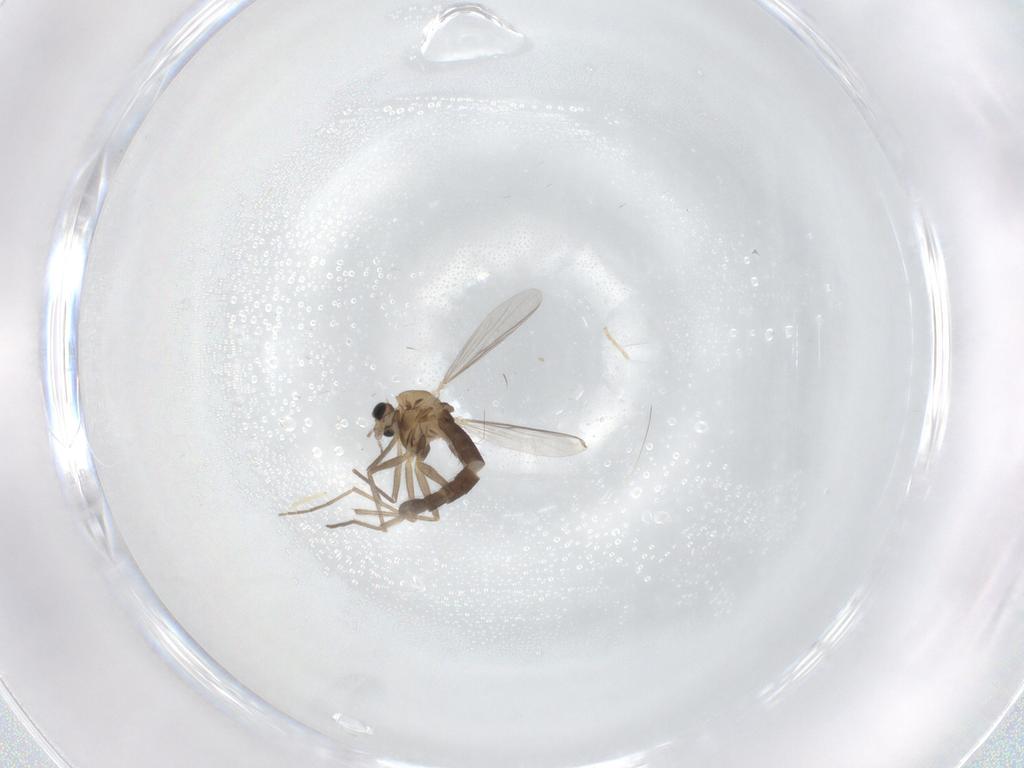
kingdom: Animalia
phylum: Arthropoda
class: Insecta
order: Diptera
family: Chironomidae
